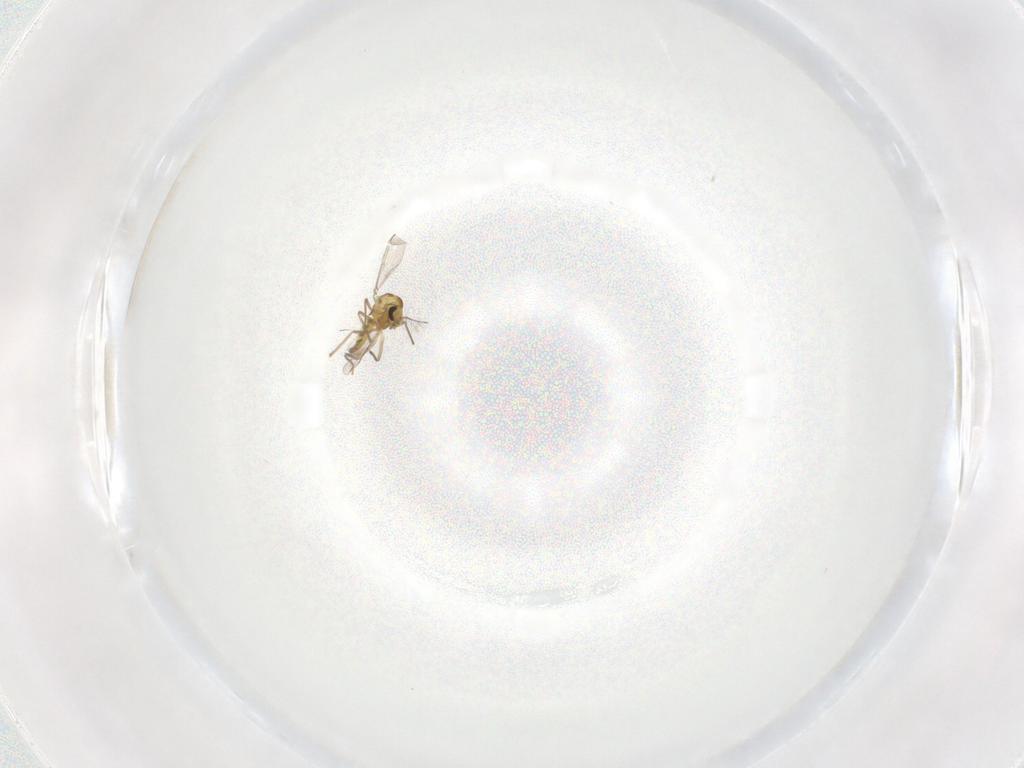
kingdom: Animalia
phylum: Arthropoda
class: Insecta
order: Diptera
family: Chironomidae
